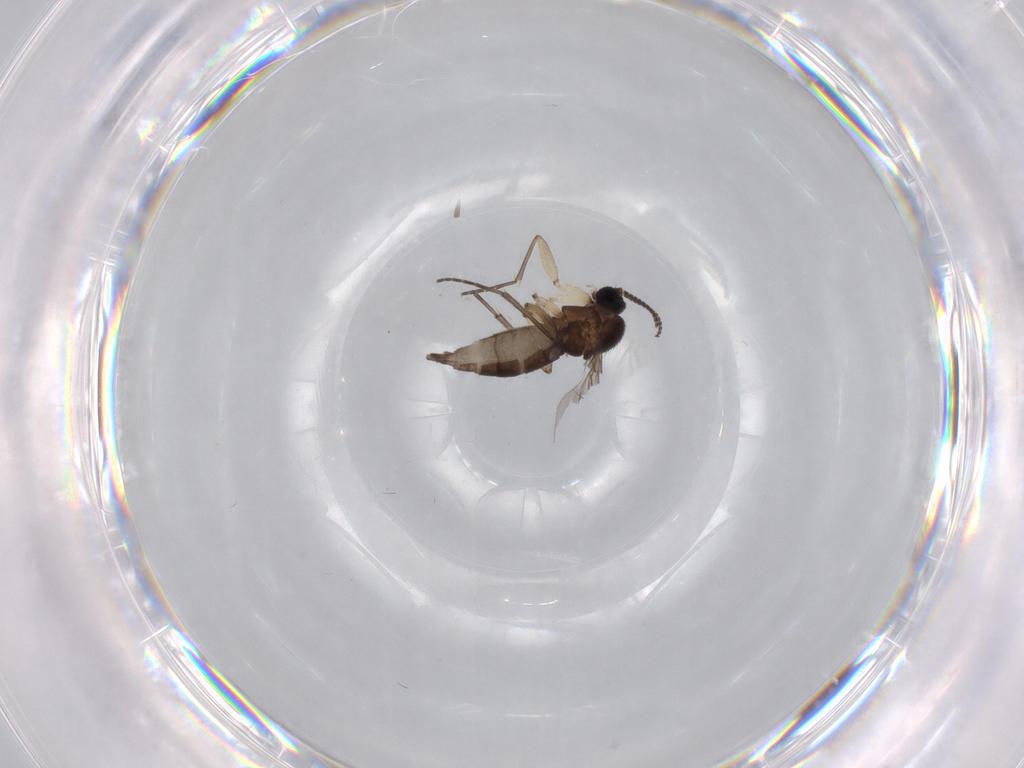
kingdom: Animalia
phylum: Arthropoda
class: Insecta
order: Diptera
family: Sciaridae
